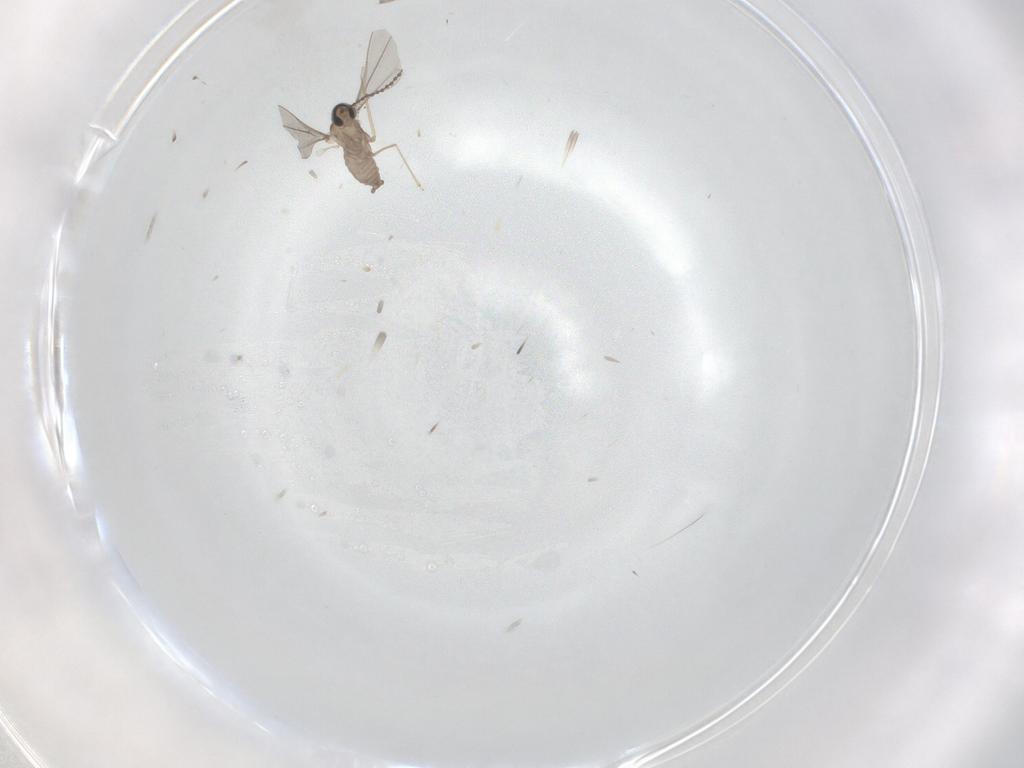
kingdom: Animalia
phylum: Arthropoda
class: Insecta
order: Diptera
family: Cecidomyiidae
